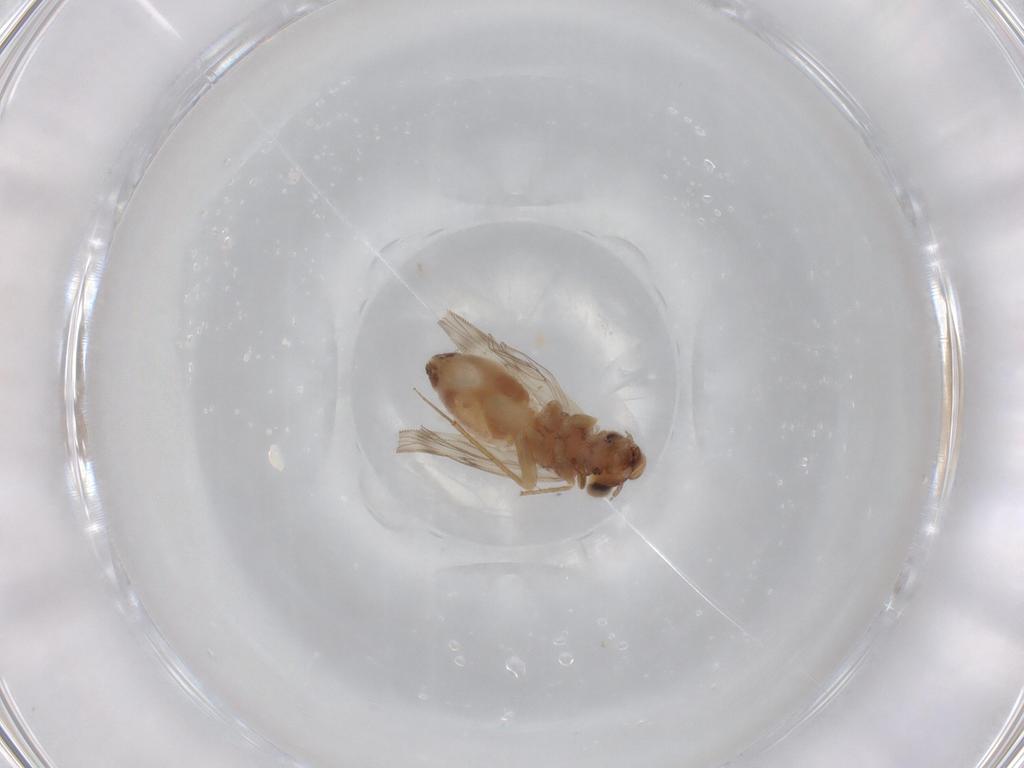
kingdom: Animalia
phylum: Arthropoda
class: Insecta
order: Psocodea
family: Lepidopsocidae
